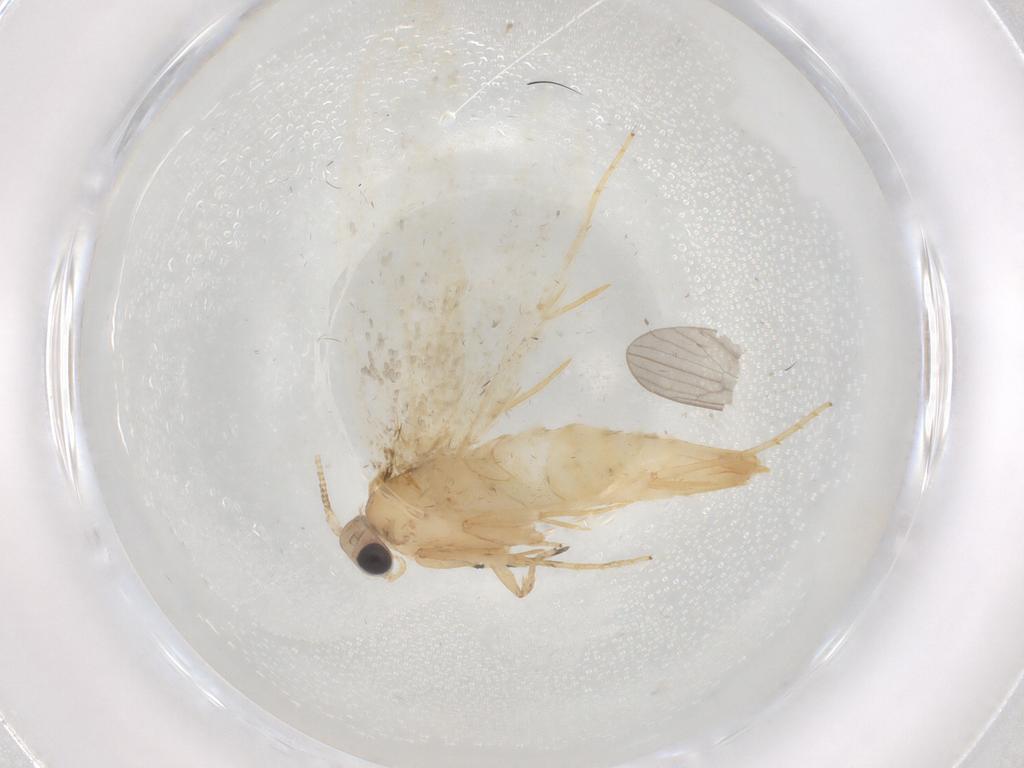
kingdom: Animalia
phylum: Arthropoda
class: Insecta
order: Lepidoptera
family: Tineidae
